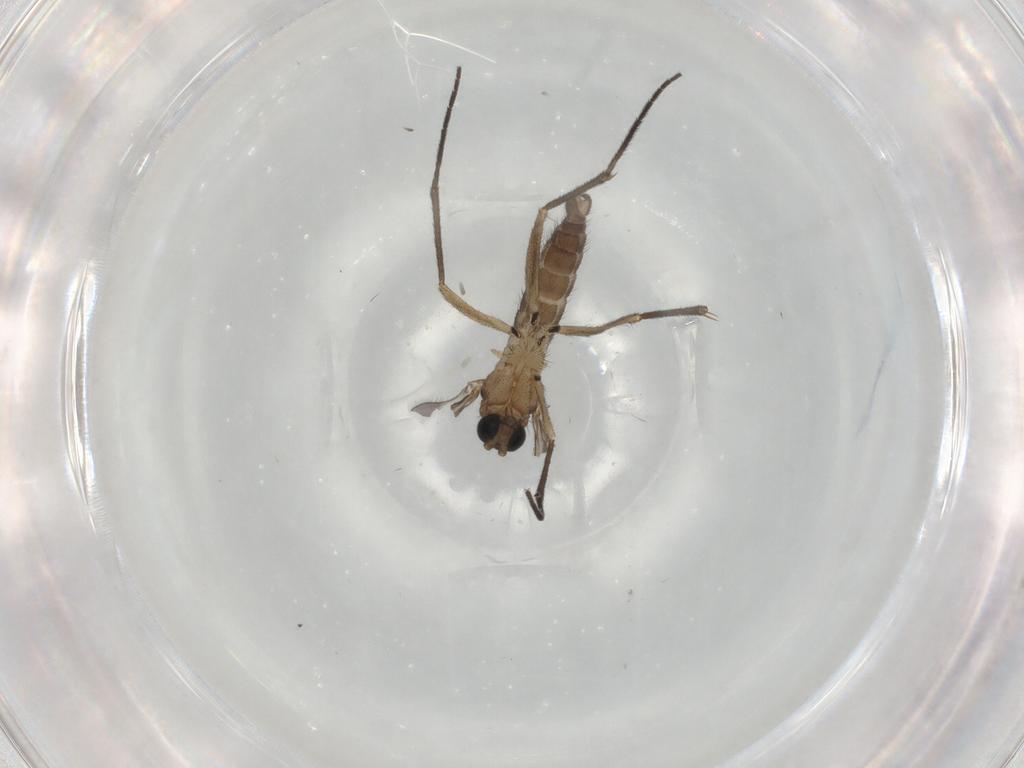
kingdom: Animalia
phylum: Arthropoda
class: Insecta
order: Diptera
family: Sciaridae
